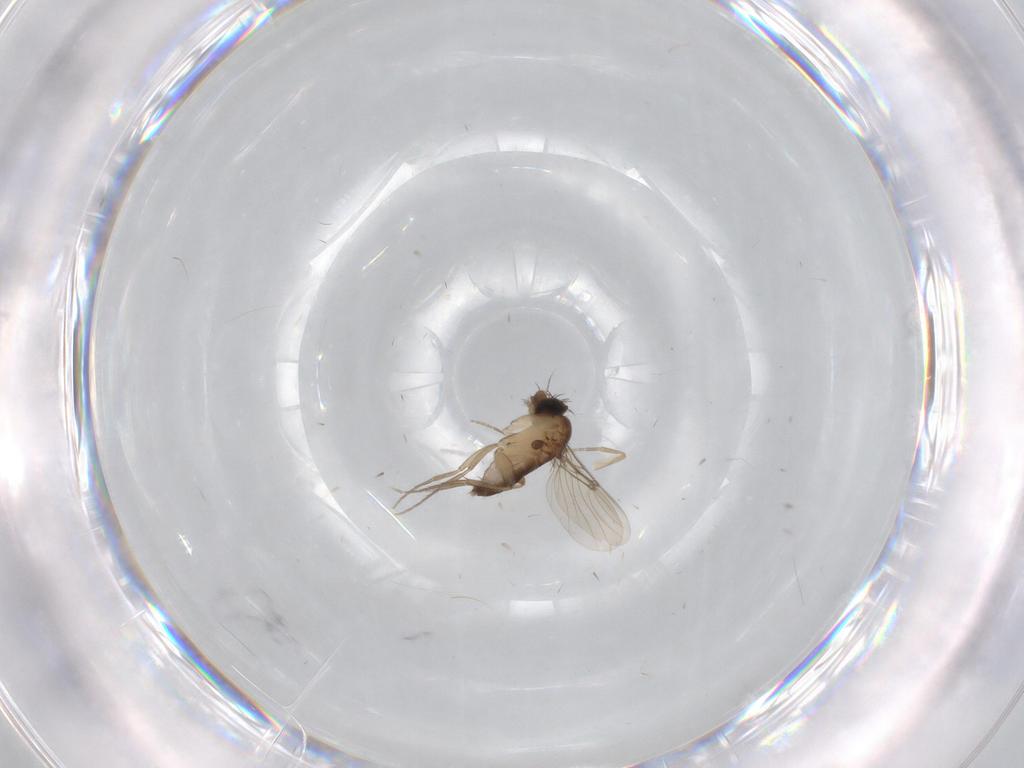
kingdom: Animalia
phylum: Arthropoda
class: Insecta
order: Diptera
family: Phoridae
